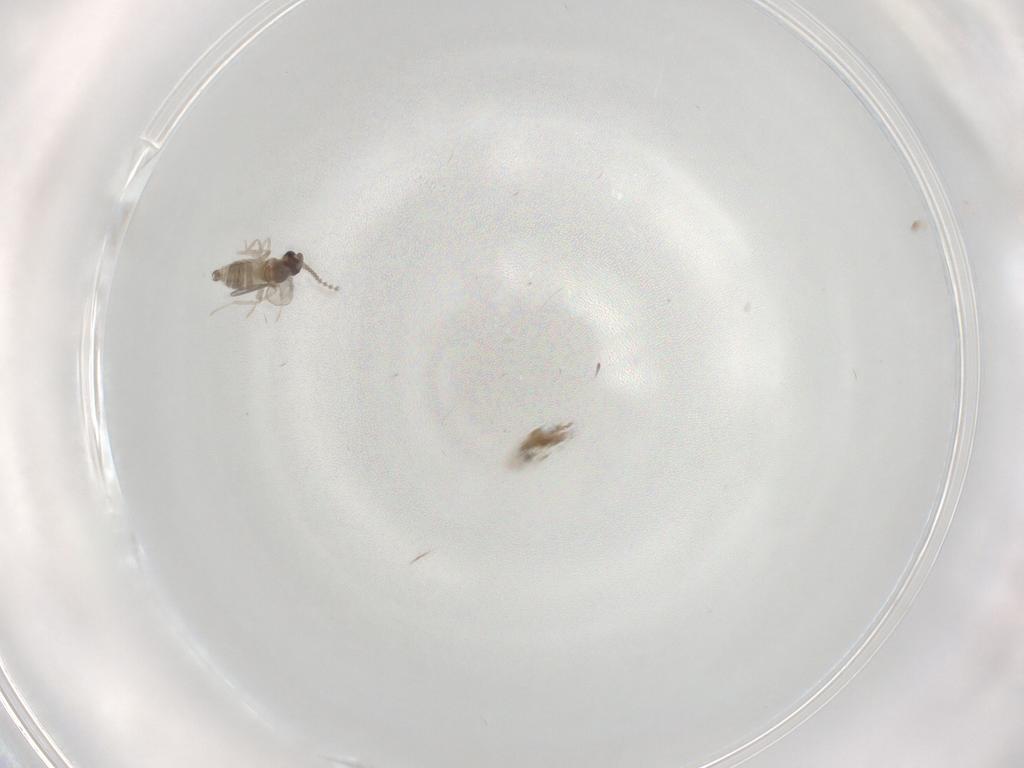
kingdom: Animalia
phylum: Arthropoda
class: Insecta
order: Diptera
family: Cecidomyiidae
